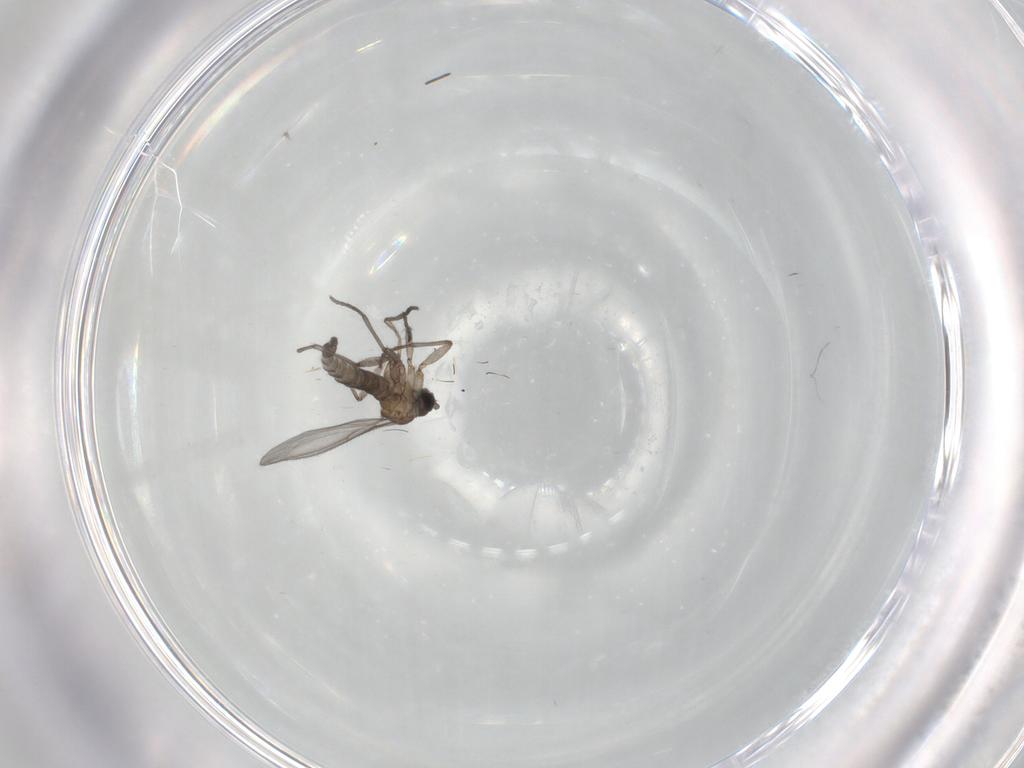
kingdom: Animalia
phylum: Arthropoda
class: Insecta
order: Diptera
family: Sciaridae
